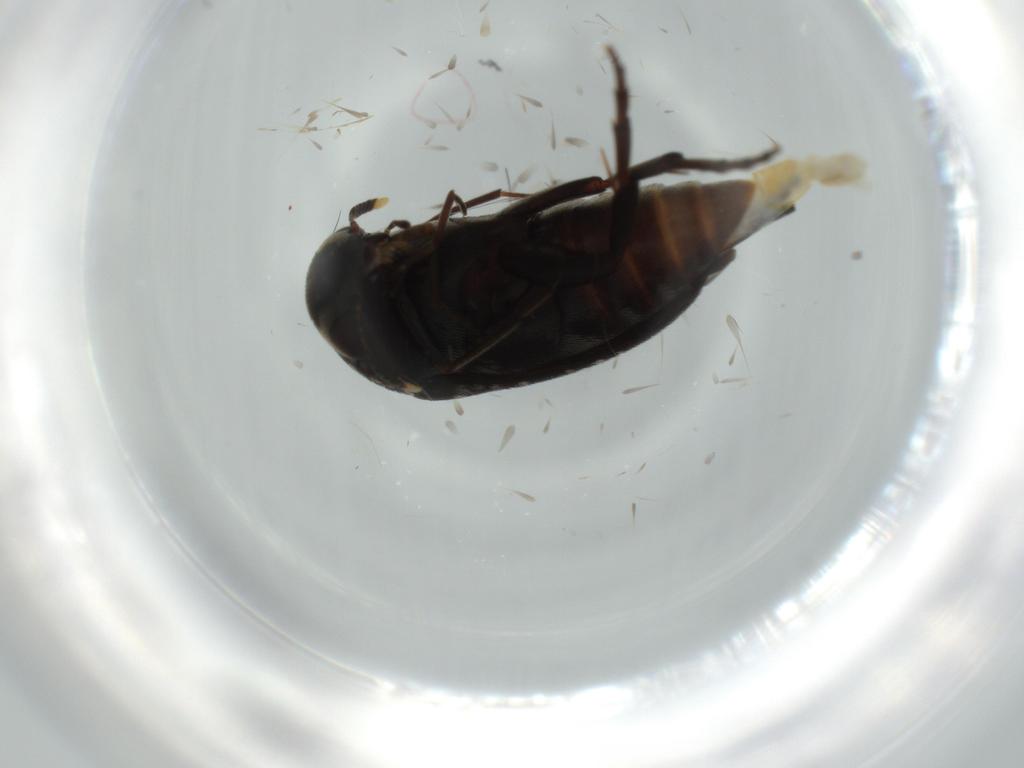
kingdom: Animalia
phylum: Arthropoda
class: Insecta
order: Coleoptera
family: Mordellidae
